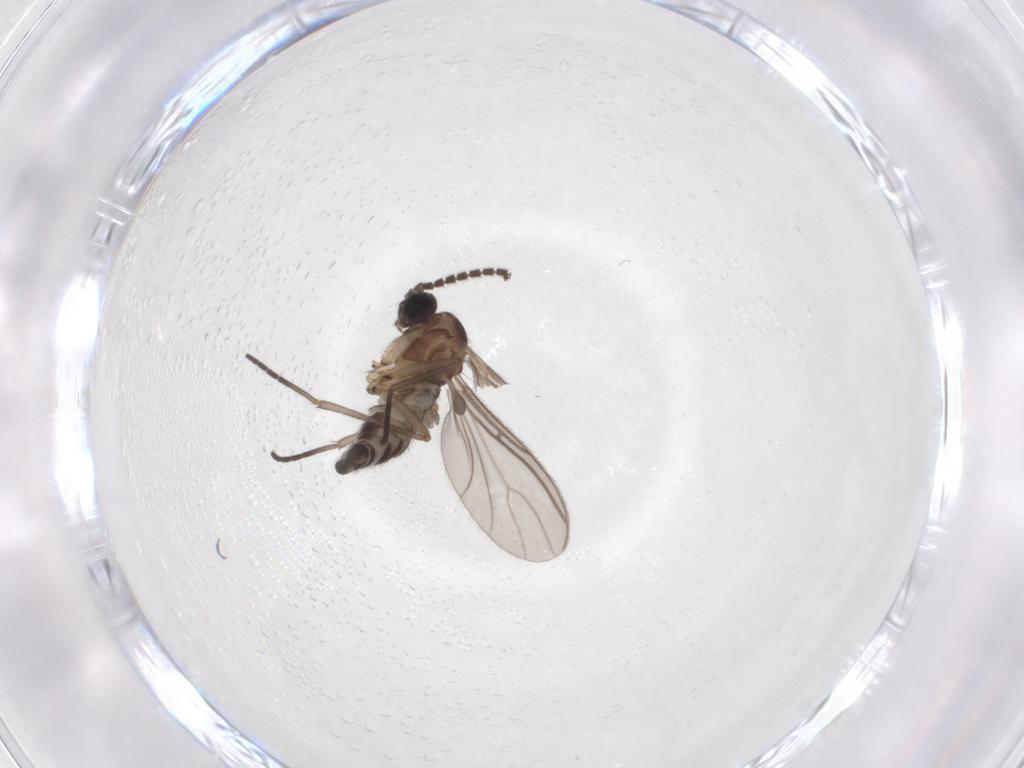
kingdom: Animalia
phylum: Arthropoda
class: Insecta
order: Diptera
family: Sciaridae
